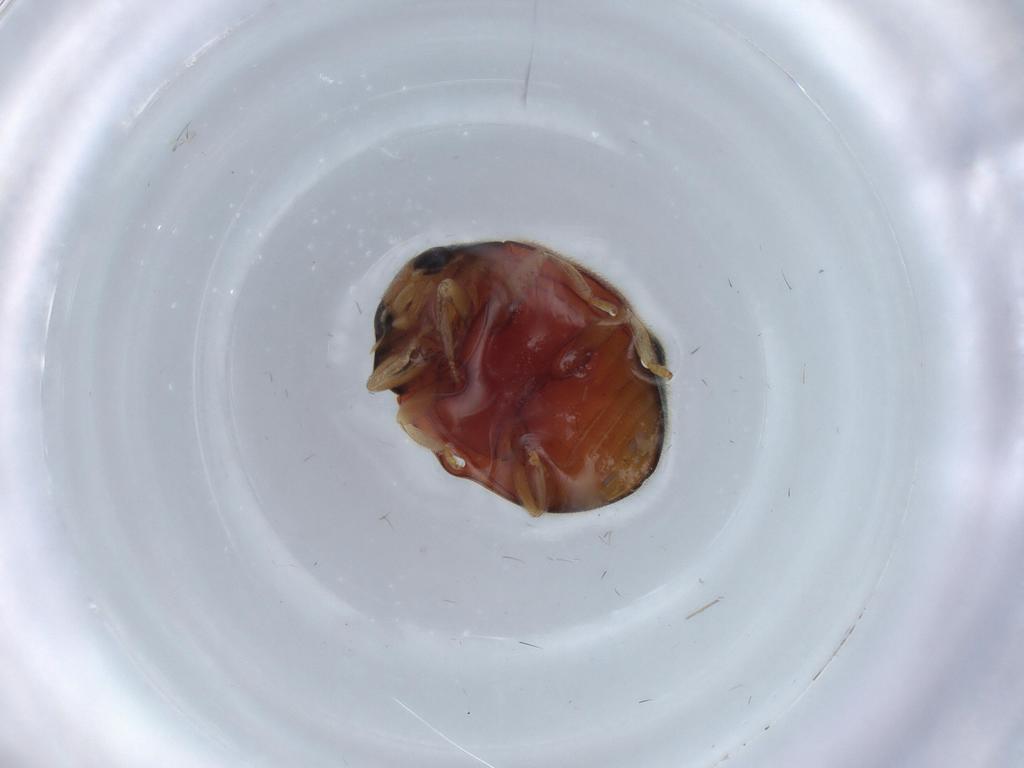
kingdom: Animalia
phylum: Arthropoda
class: Insecta
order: Coleoptera
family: Coccinellidae
